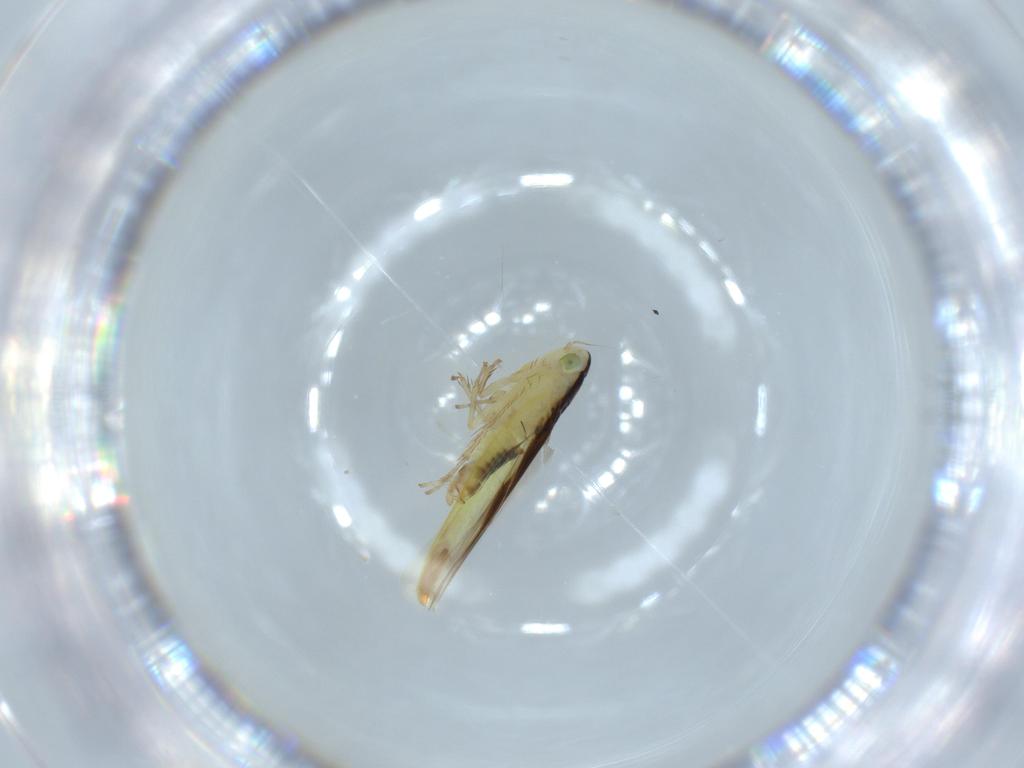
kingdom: Animalia
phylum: Arthropoda
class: Insecta
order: Hemiptera
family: Cicadellidae
